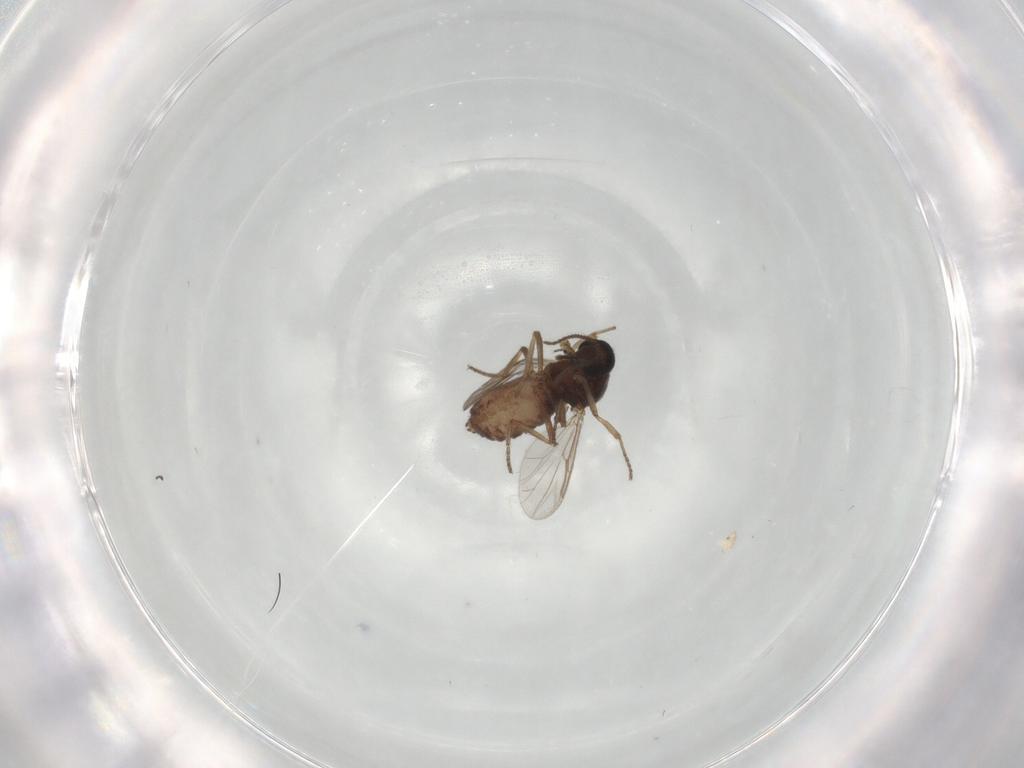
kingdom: Animalia
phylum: Arthropoda
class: Insecta
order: Diptera
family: Ceratopogonidae
